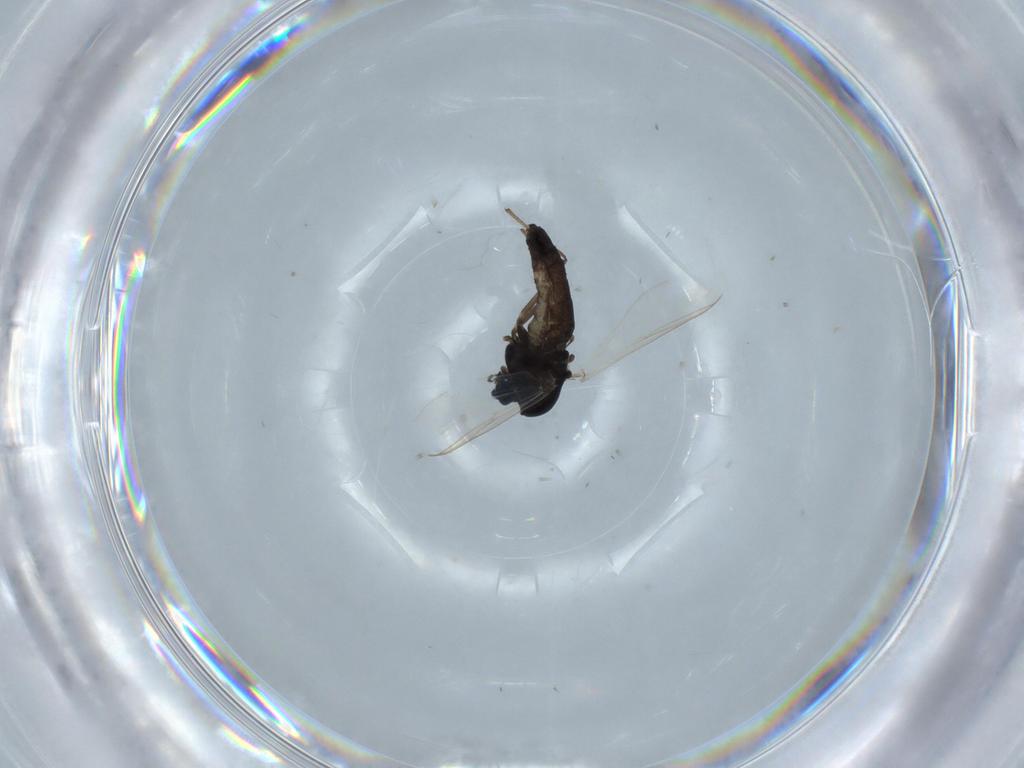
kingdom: Animalia
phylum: Arthropoda
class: Insecta
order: Diptera
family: Chironomidae
